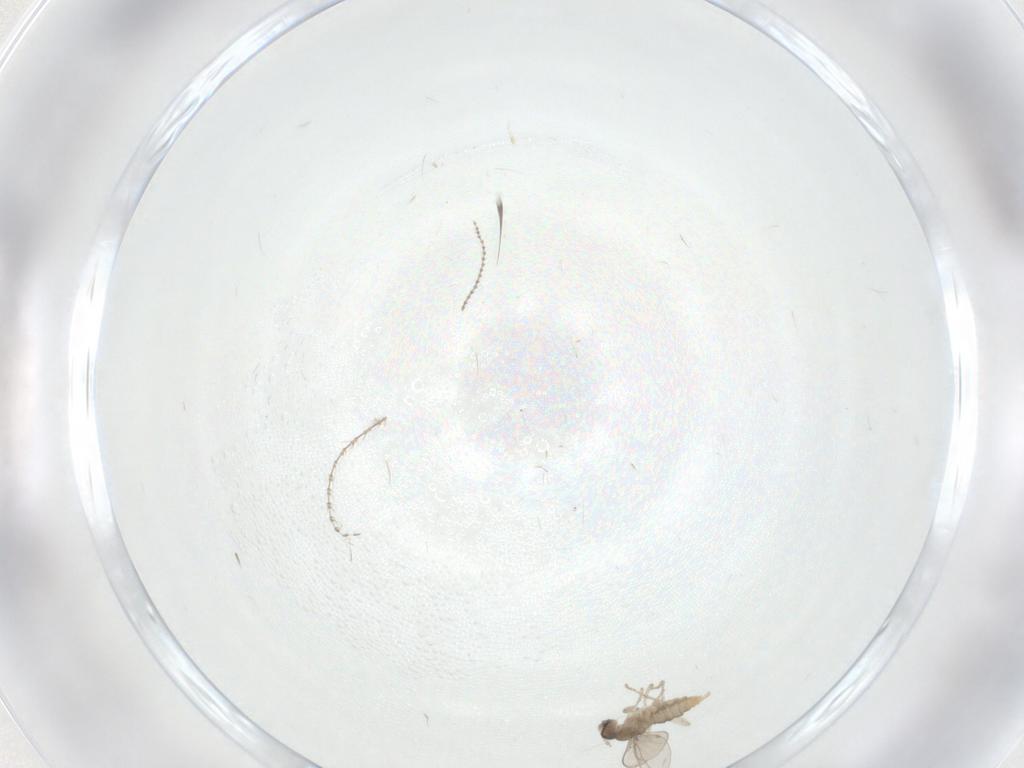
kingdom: Animalia
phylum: Arthropoda
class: Insecta
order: Diptera
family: Cecidomyiidae
